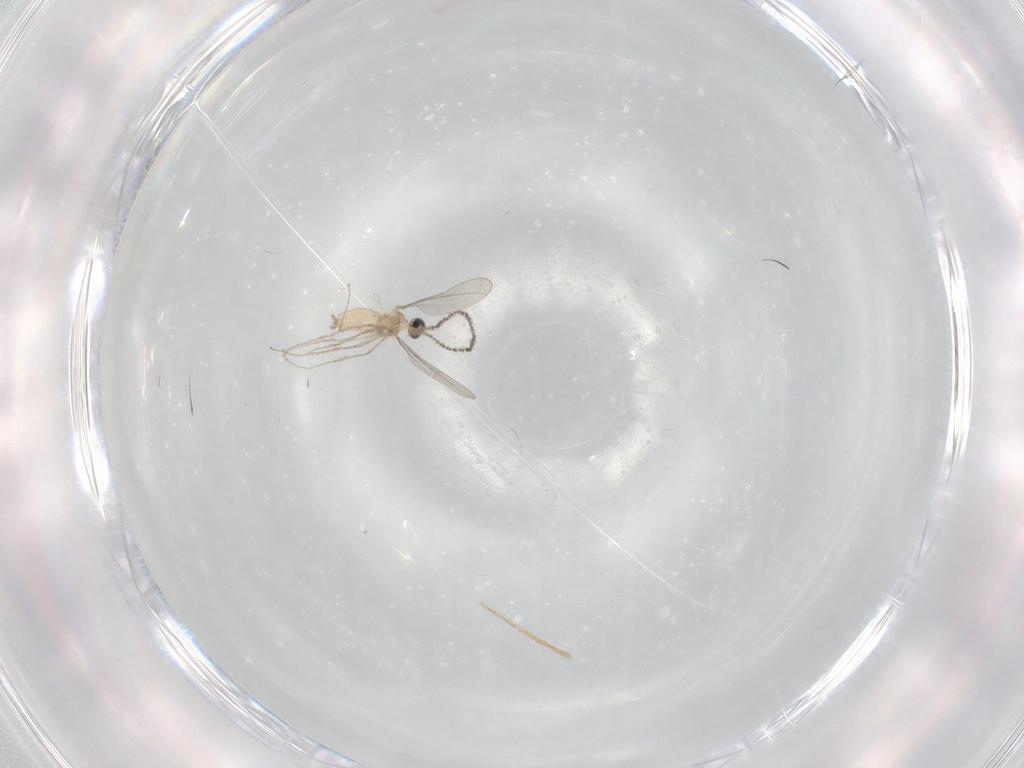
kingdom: Animalia
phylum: Arthropoda
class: Insecta
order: Diptera
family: Cecidomyiidae
